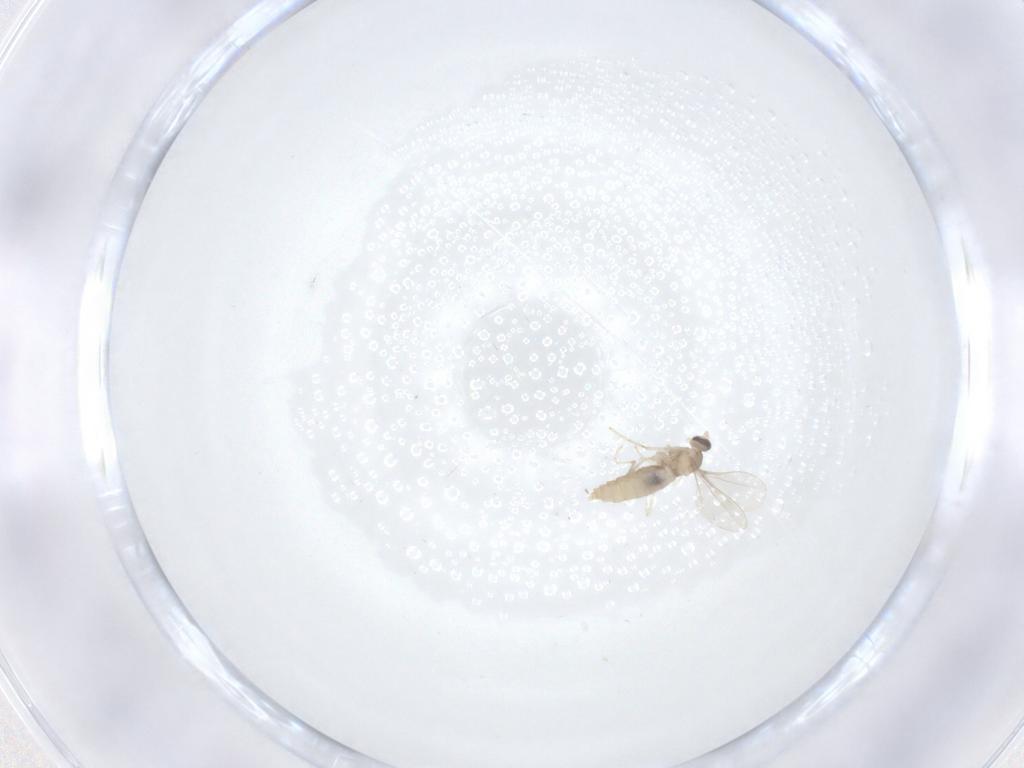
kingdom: Animalia
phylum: Arthropoda
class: Insecta
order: Diptera
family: Cecidomyiidae
